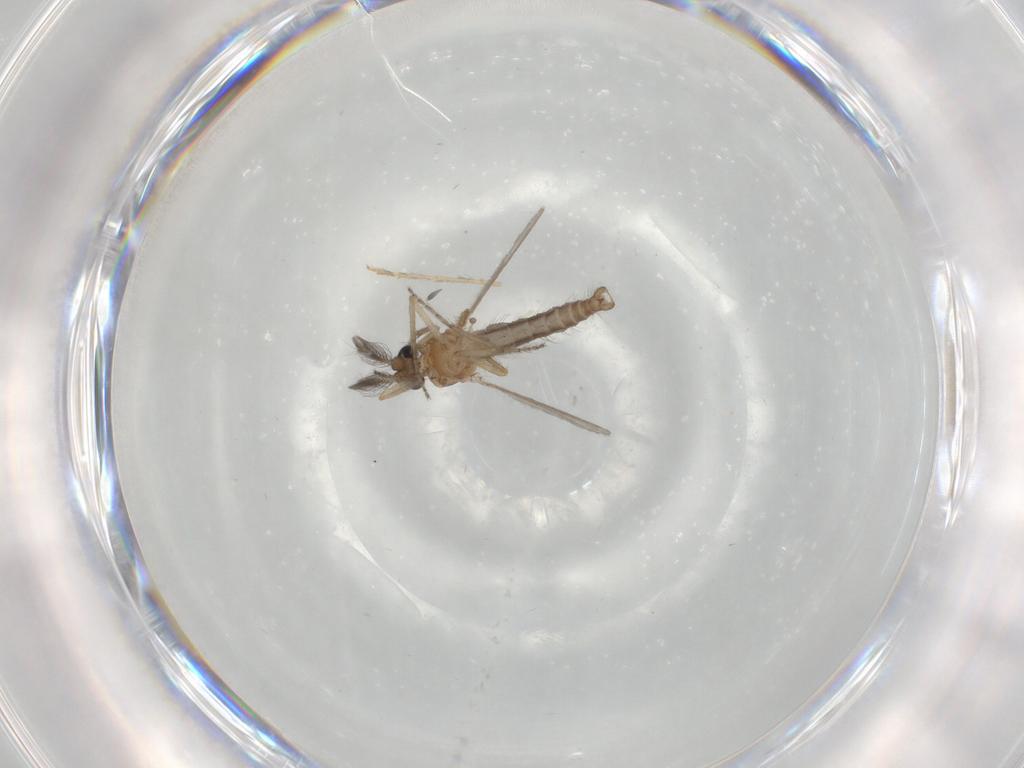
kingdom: Animalia
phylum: Arthropoda
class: Insecta
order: Diptera
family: Ceratopogonidae
